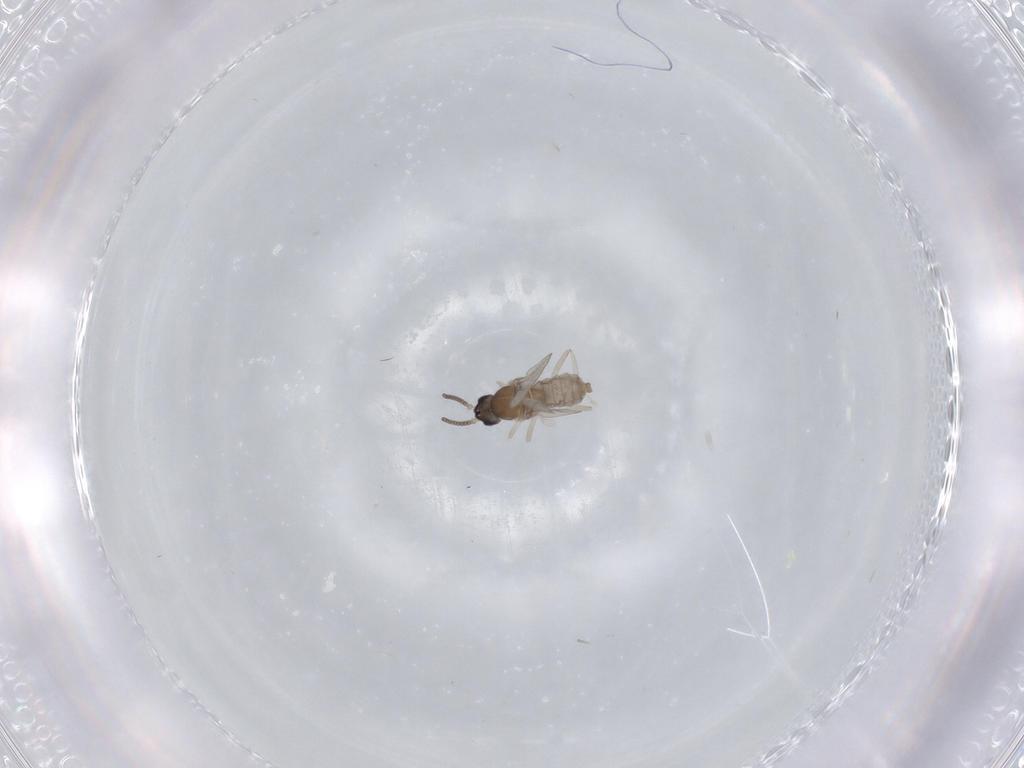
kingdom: Animalia
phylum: Arthropoda
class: Insecta
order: Diptera
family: Cecidomyiidae
